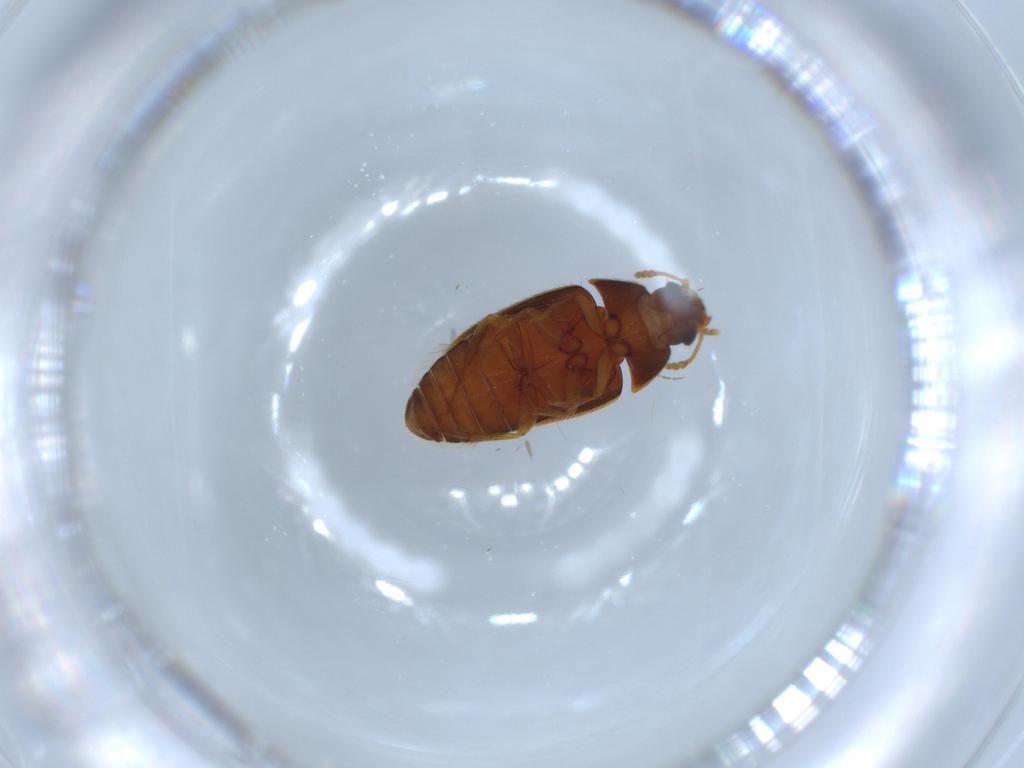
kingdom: Animalia
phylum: Arthropoda
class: Insecta
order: Coleoptera
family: Mycetophagidae
